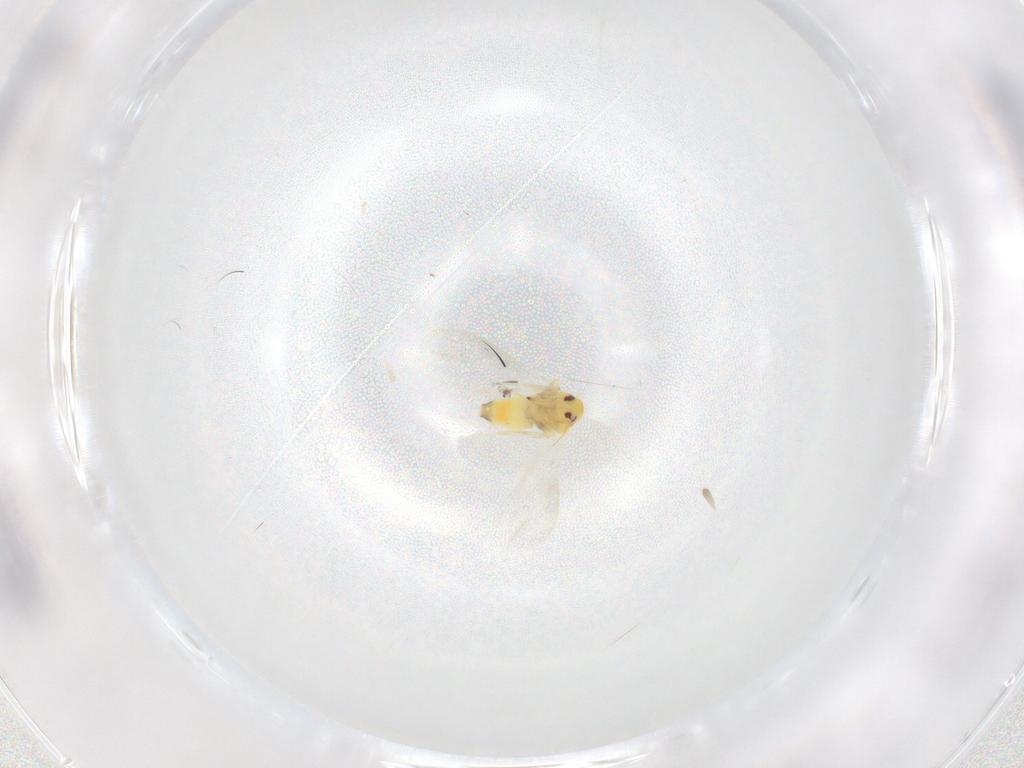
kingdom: Animalia
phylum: Arthropoda
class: Insecta
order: Hemiptera
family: Aleyrodidae
